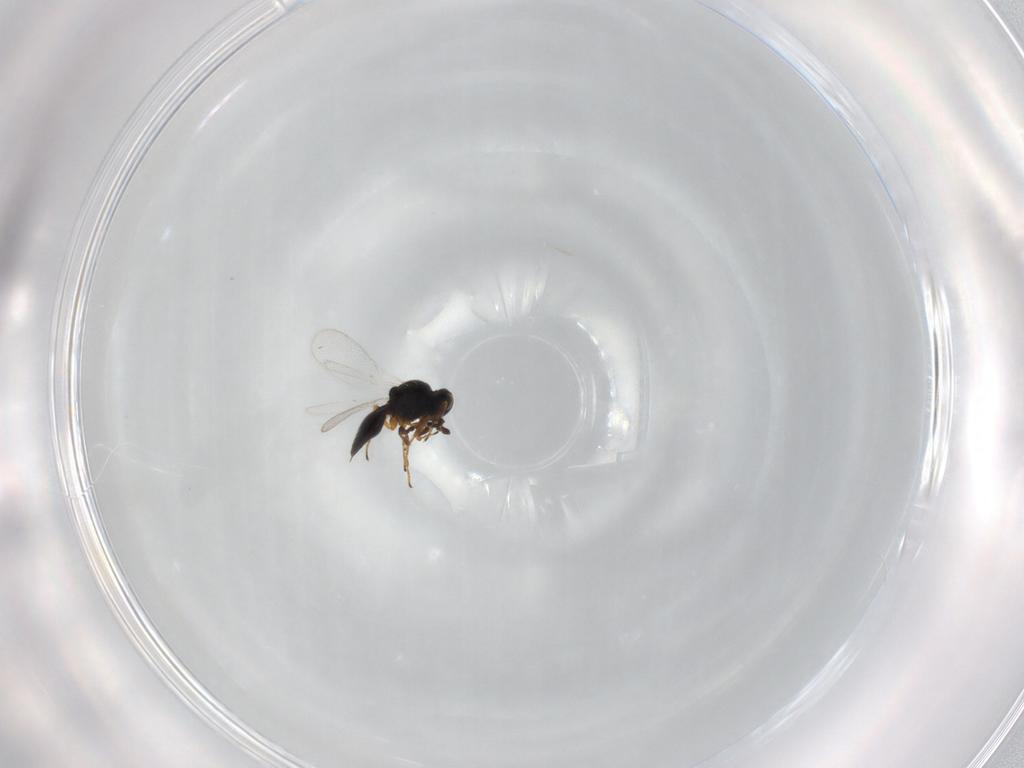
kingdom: Animalia
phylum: Arthropoda
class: Insecta
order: Hymenoptera
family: Platygastridae
